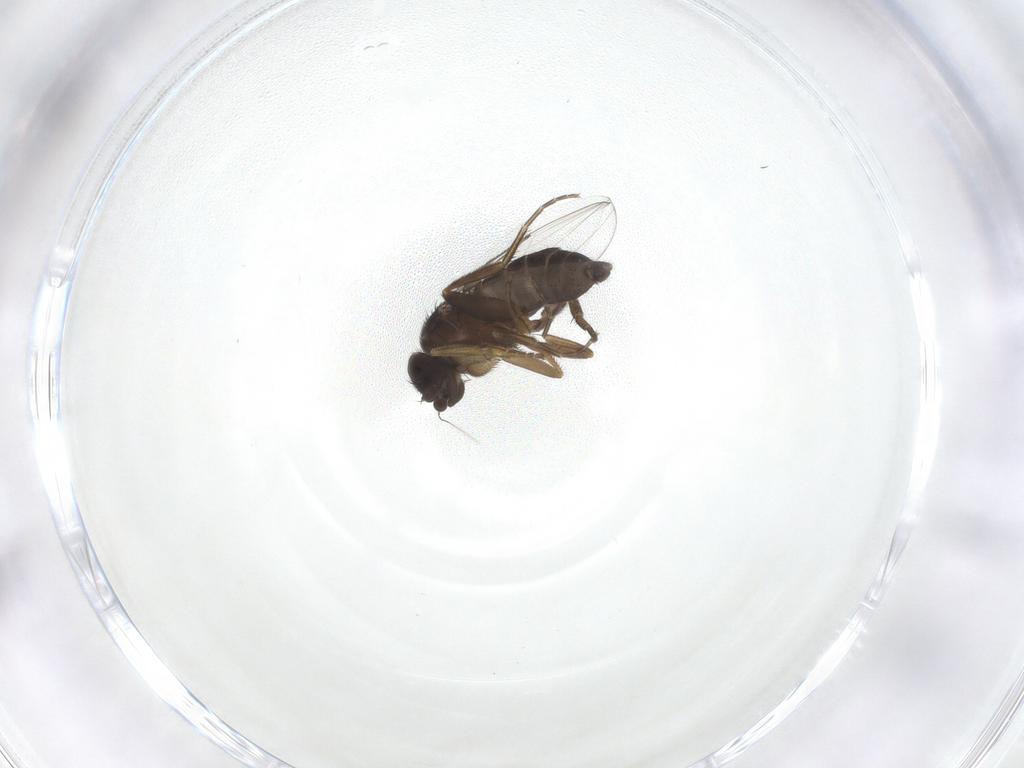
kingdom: Animalia
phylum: Arthropoda
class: Insecta
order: Diptera
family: Phoridae
